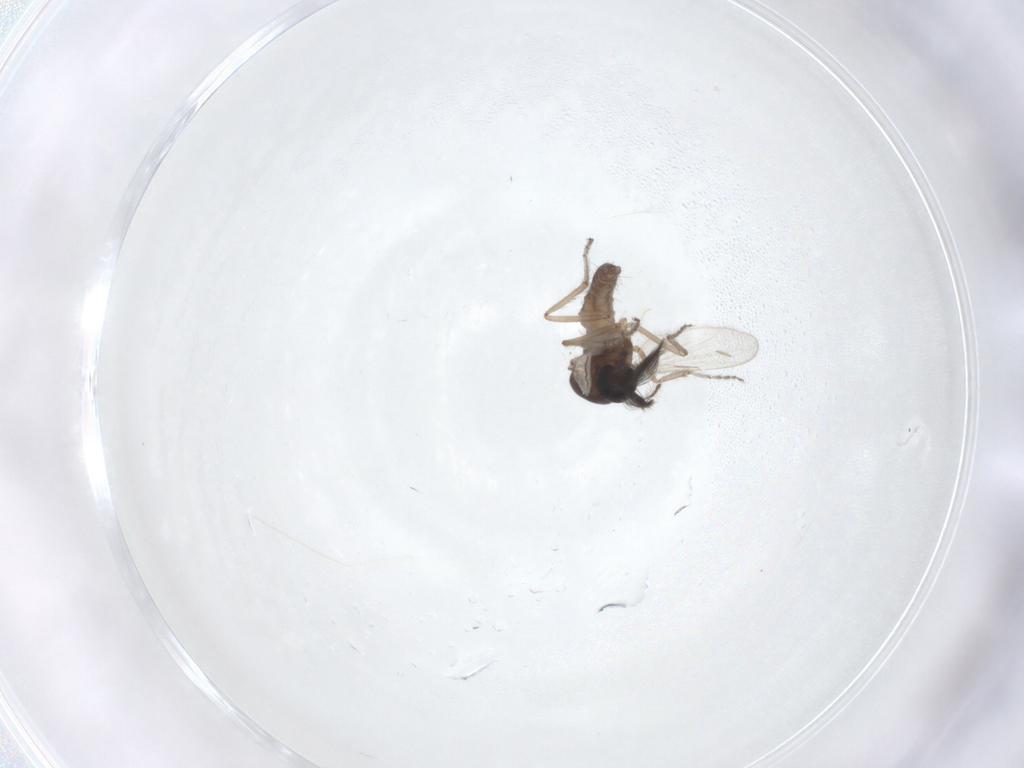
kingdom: Animalia
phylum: Arthropoda
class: Insecta
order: Diptera
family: Ceratopogonidae
